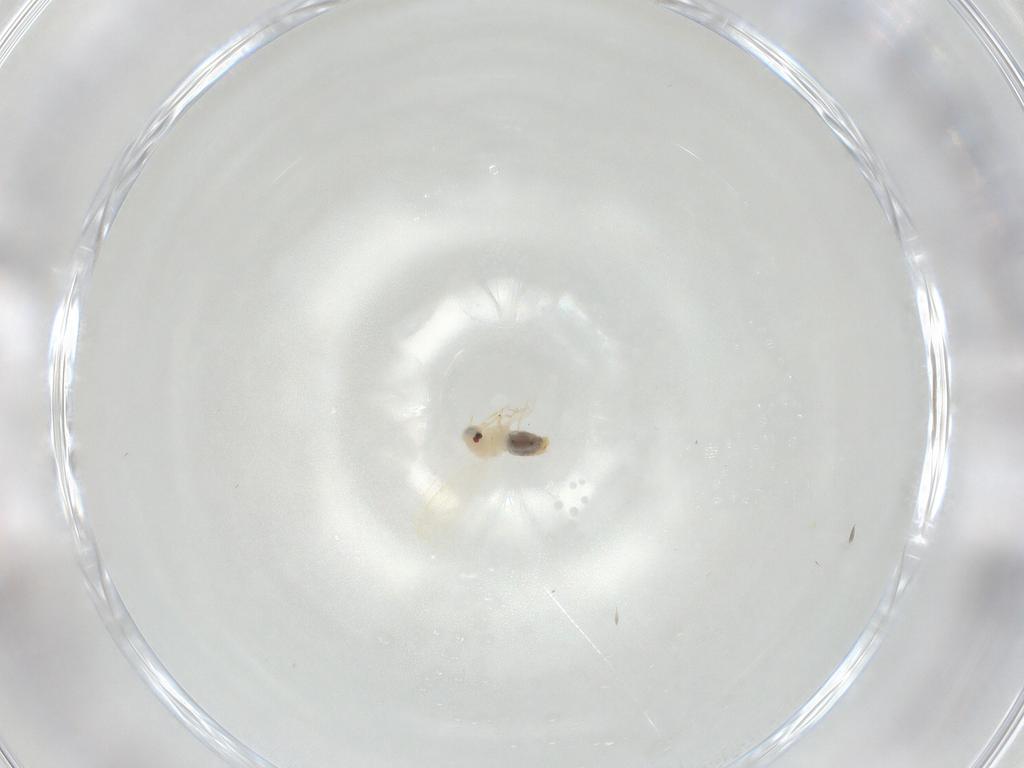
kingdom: Animalia
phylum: Arthropoda
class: Insecta
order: Hemiptera
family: Aleyrodidae
